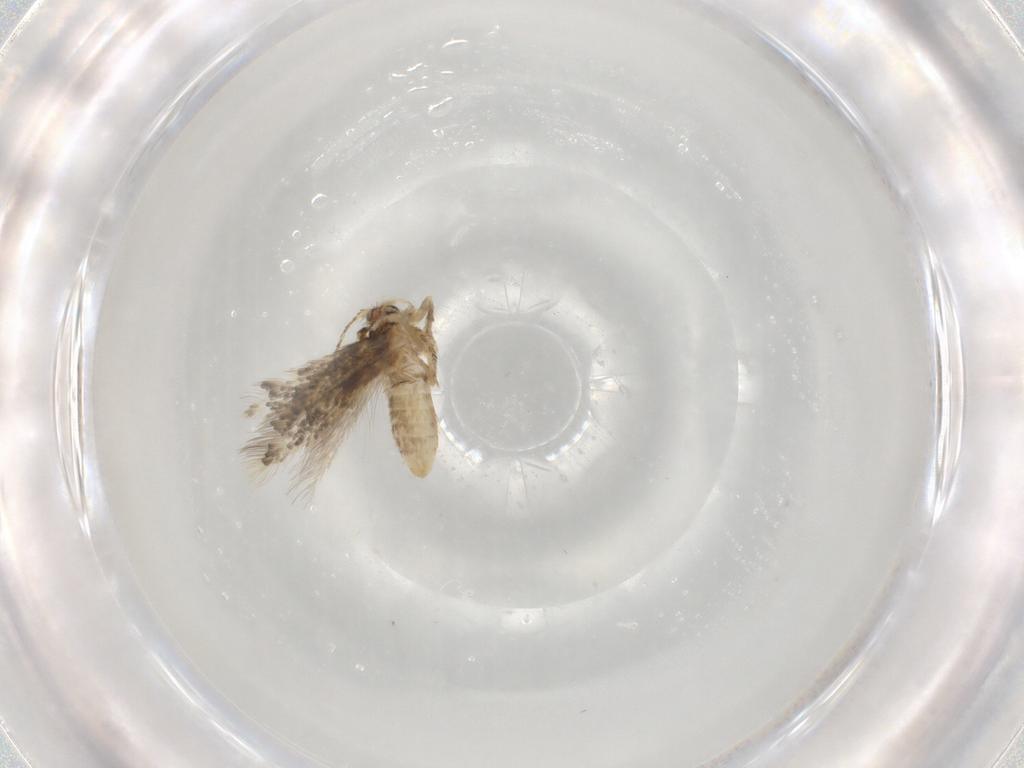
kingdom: Animalia
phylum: Arthropoda
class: Insecta
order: Lepidoptera
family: Nepticulidae
